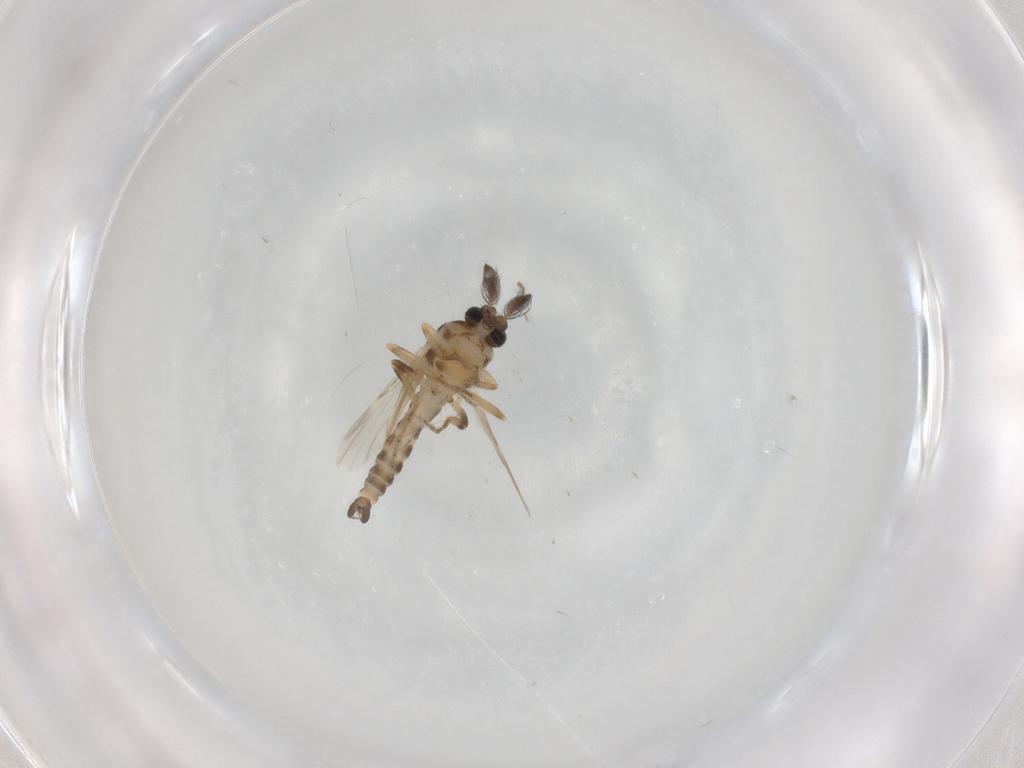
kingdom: Animalia
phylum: Arthropoda
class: Insecta
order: Diptera
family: Ceratopogonidae
